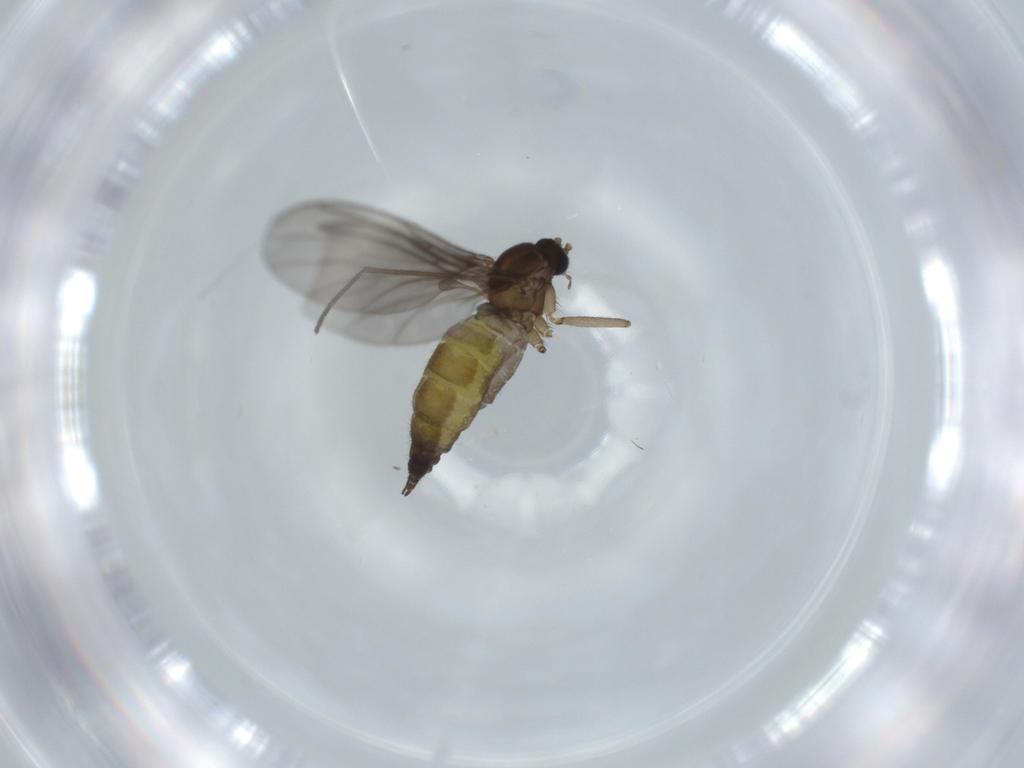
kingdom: Animalia
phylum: Arthropoda
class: Insecta
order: Diptera
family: Sciaridae
